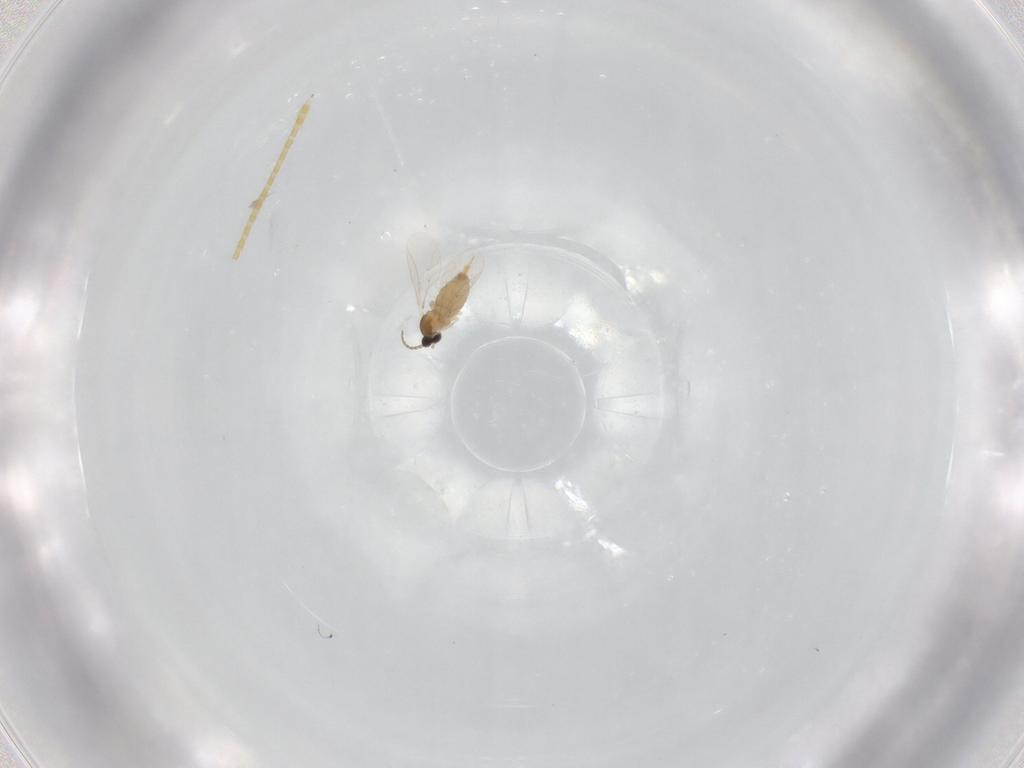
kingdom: Animalia
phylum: Arthropoda
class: Insecta
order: Diptera
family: Cecidomyiidae
